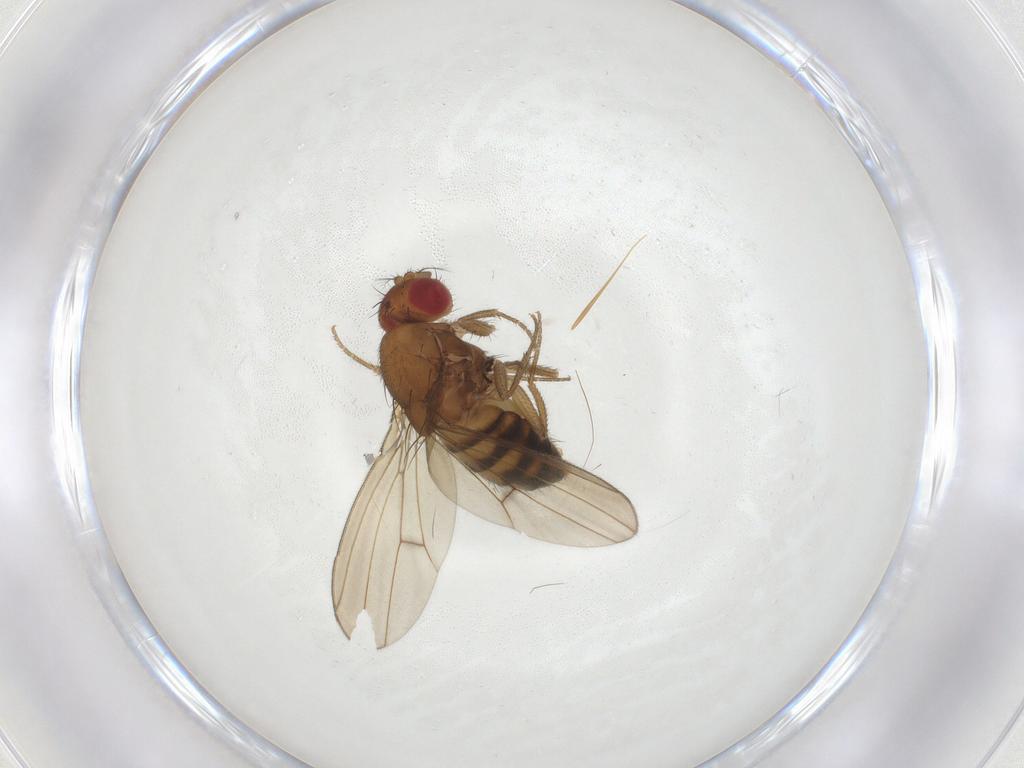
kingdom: Animalia
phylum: Arthropoda
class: Insecta
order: Diptera
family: Drosophilidae
